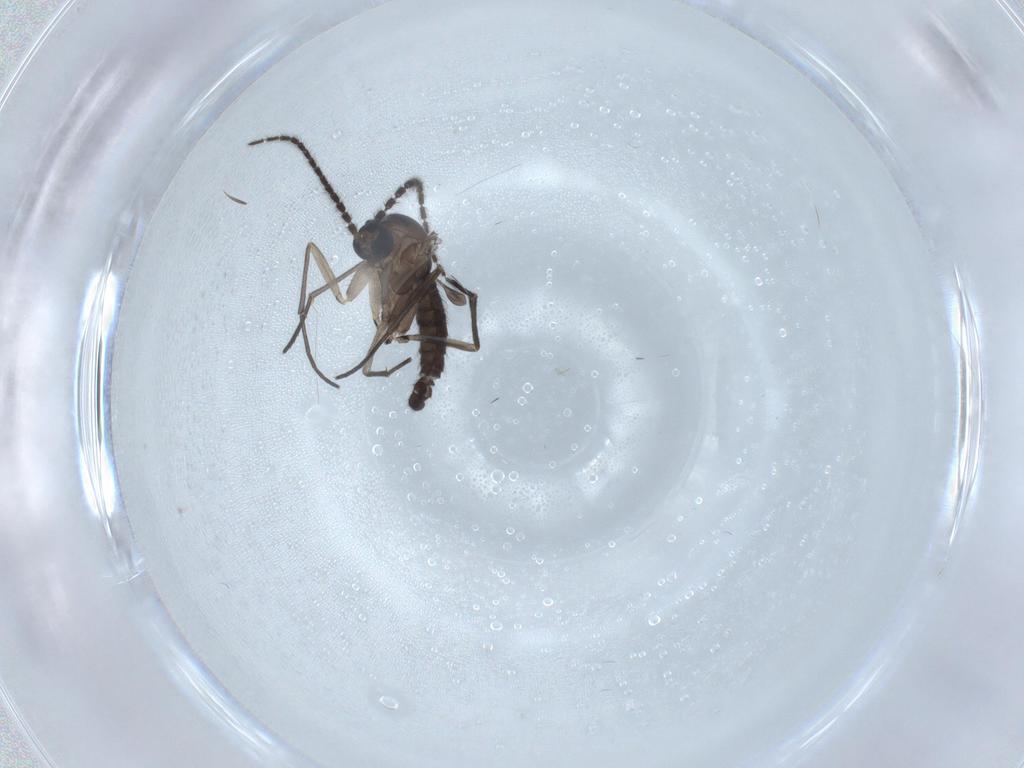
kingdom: Animalia
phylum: Arthropoda
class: Insecta
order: Diptera
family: Sciaridae
